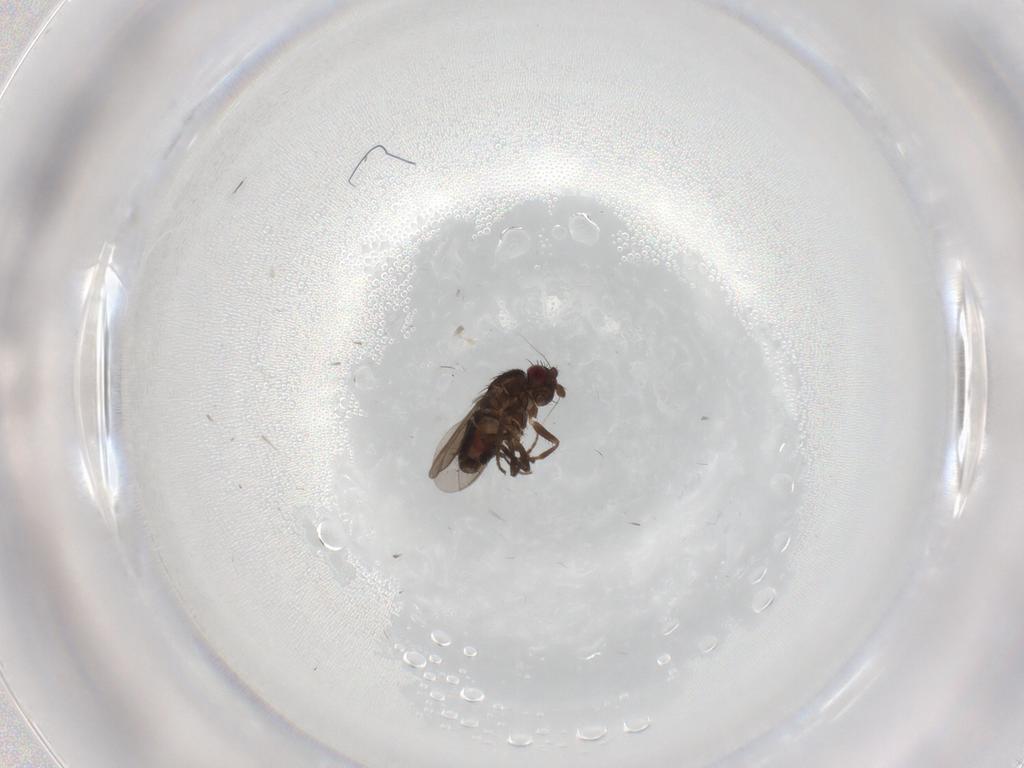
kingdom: Animalia
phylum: Arthropoda
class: Insecta
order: Diptera
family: Sphaeroceridae
